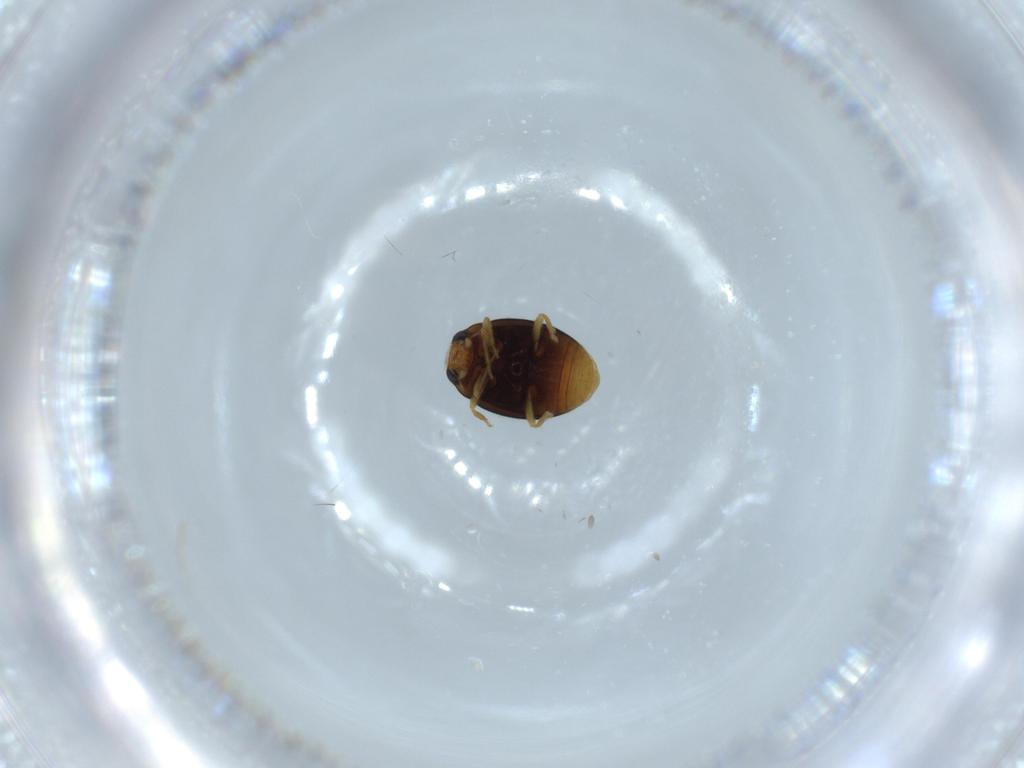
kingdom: Animalia
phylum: Arthropoda
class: Insecta
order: Coleoptera
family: Coccinellidae
